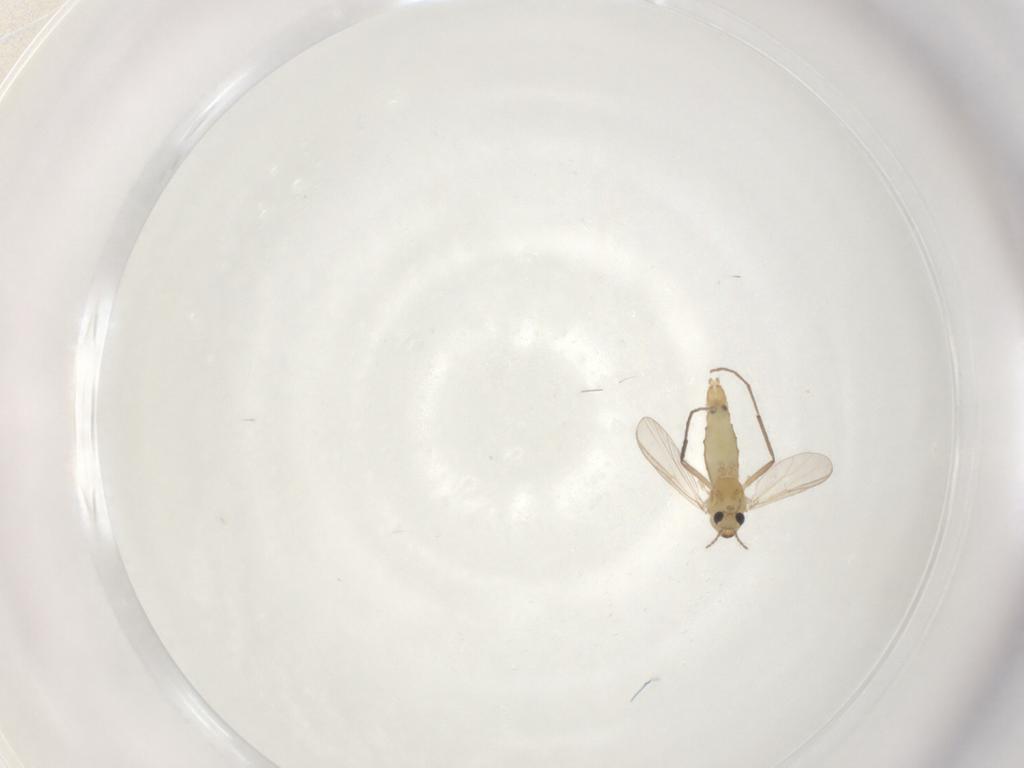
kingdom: Animalia
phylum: Arthropoda
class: Insecta
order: Diptera
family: Chironomidae
